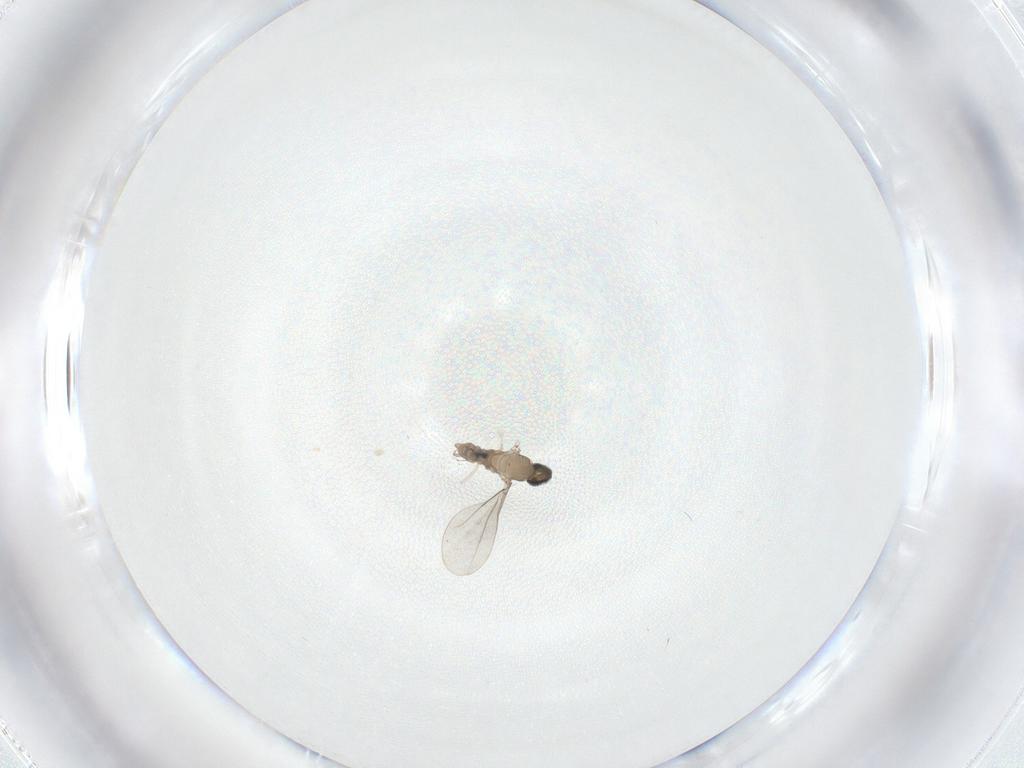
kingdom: Animalia
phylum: Arthropoda
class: Insecta
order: Diptera
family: Cecidomyiidae
